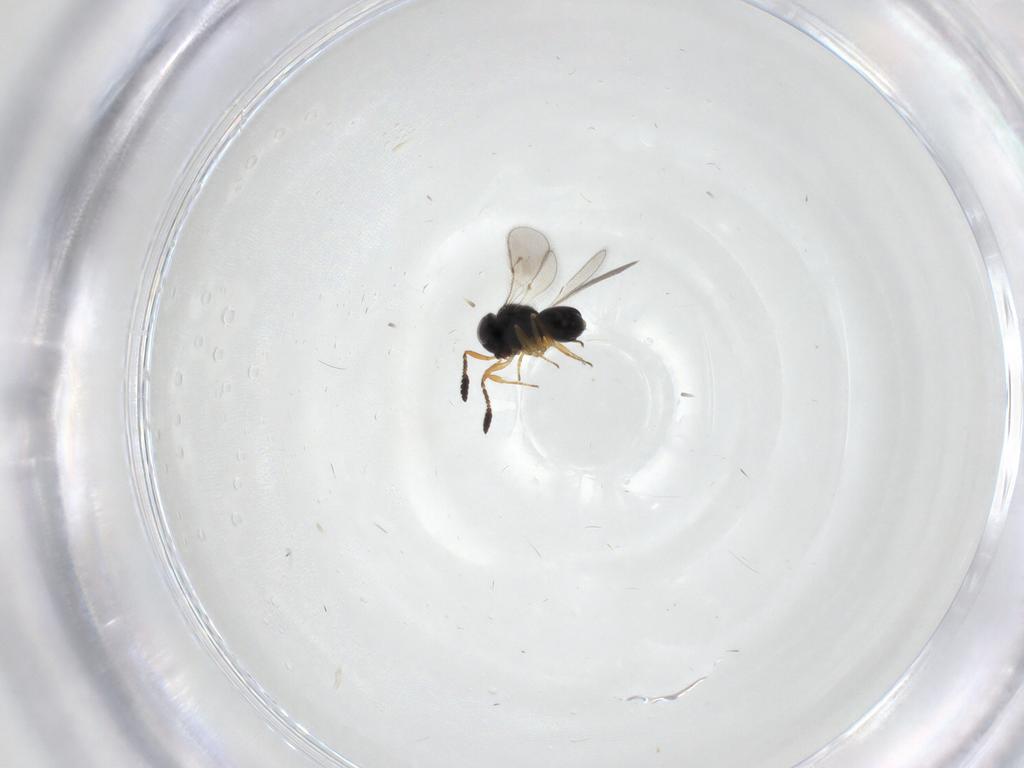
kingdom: Animalia
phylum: Arthropoda
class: Insecta
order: Hymenoptera
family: Scelionidae
